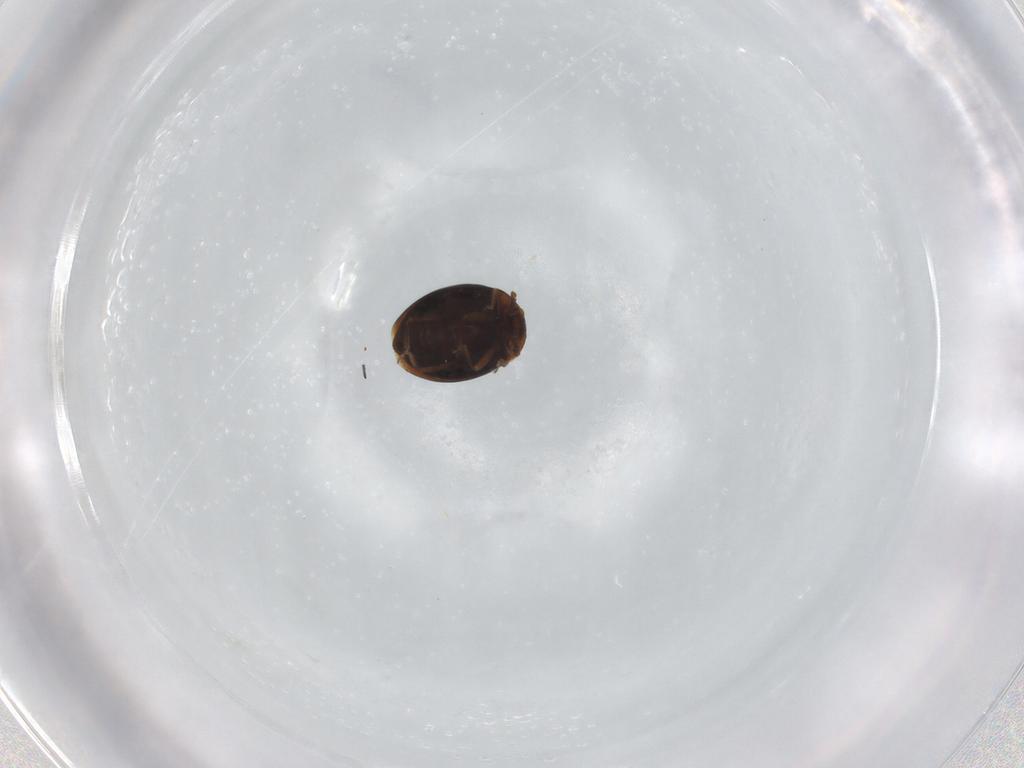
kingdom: Animalia
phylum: Arthropoda
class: Insecta
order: Coleoptera
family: Corylophidae
